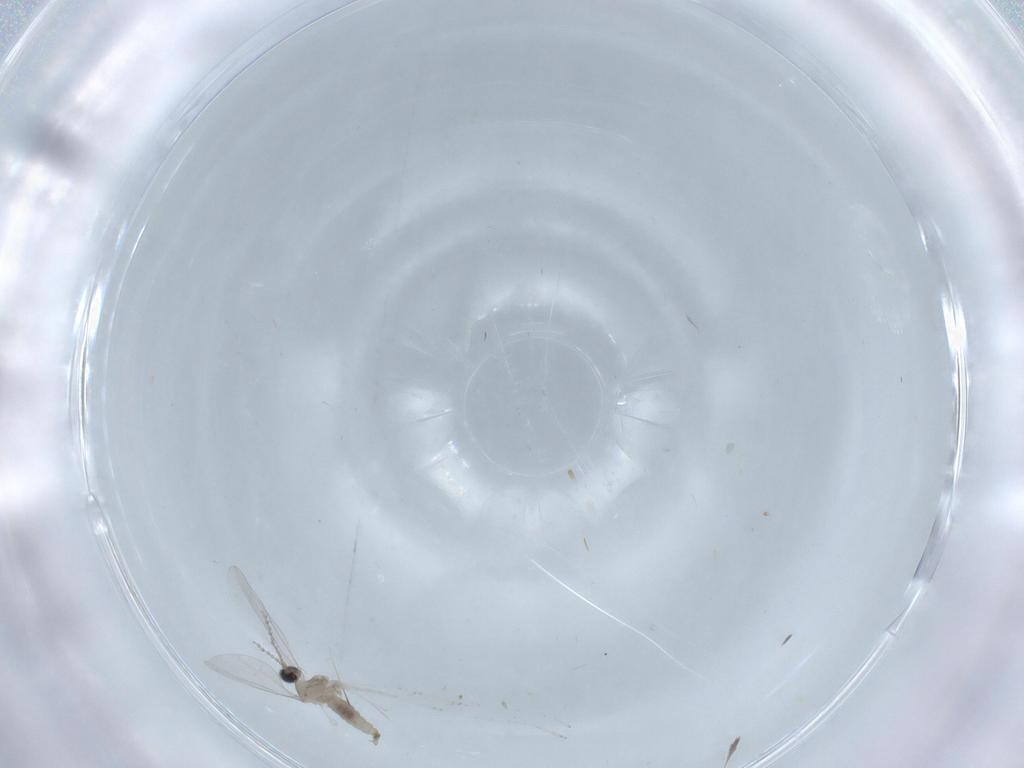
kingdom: Animalia
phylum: Arthropoda
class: Insecta
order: Diptera
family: Cecidomyiidae
